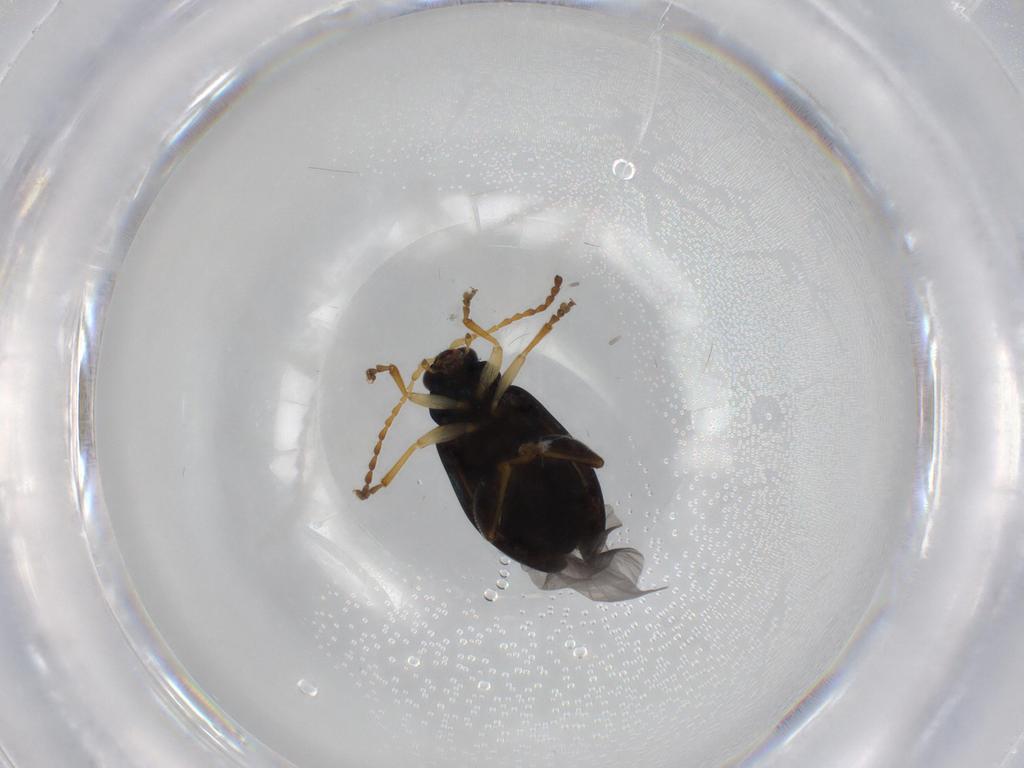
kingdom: Animalia
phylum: Arthropoda
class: Insecta
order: Coleoptera
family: Chrysomelidae
